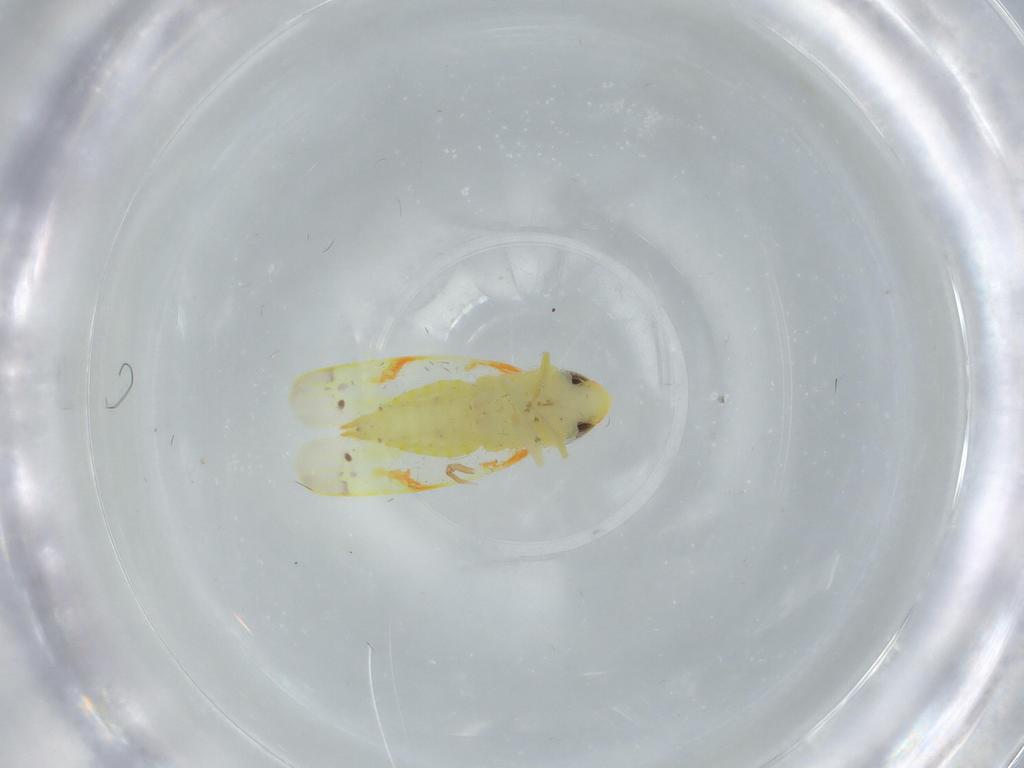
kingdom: Animalia
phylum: Arthropoda
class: Insecta
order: Hemiptera
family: Cicadellidae
